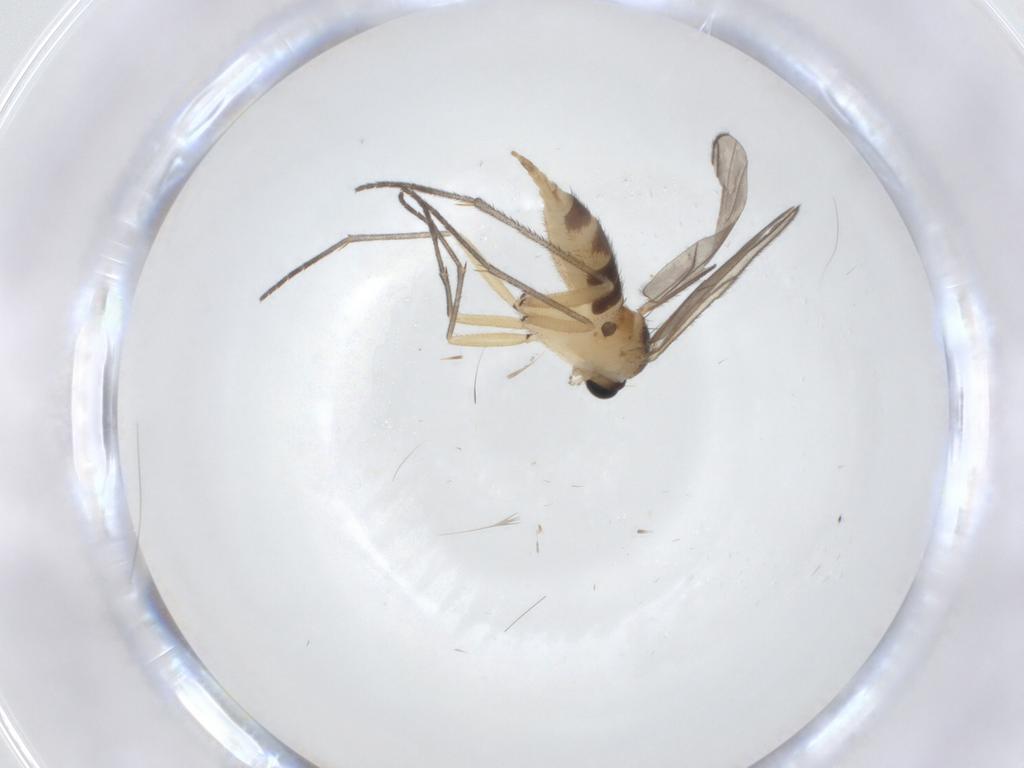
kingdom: Animalia
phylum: Arthropoda
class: Insecta
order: Diptera
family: Sciaridae
